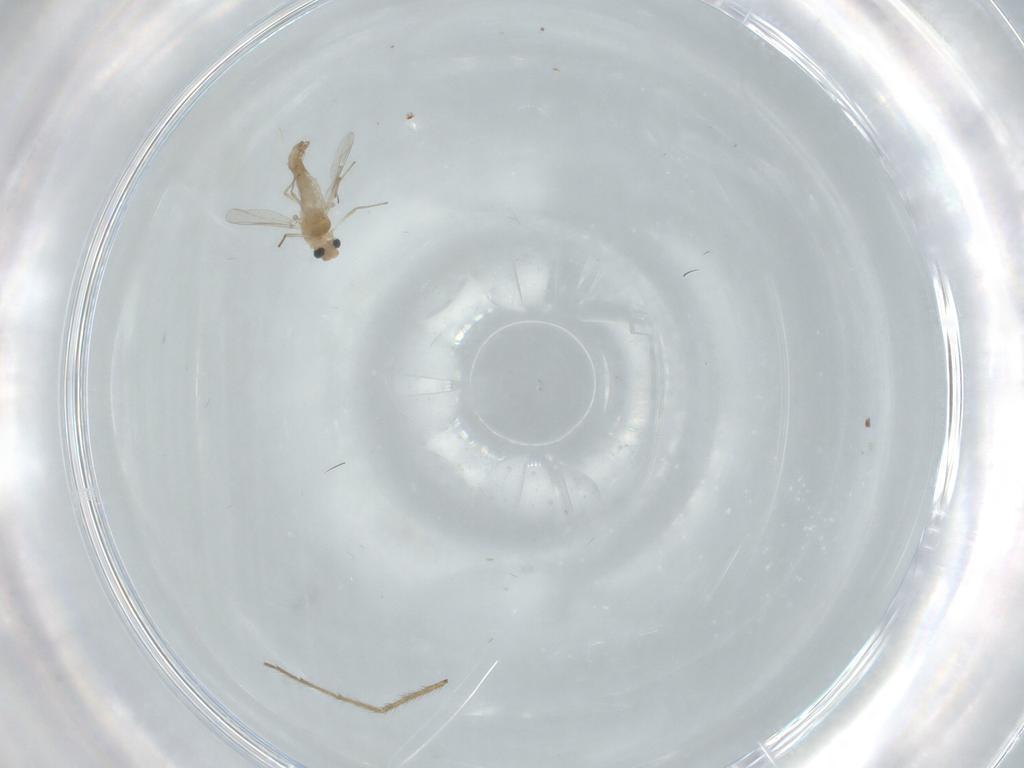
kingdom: Animalia
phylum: Arthropoda
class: Insecta
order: Diptera
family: Chironomidae
